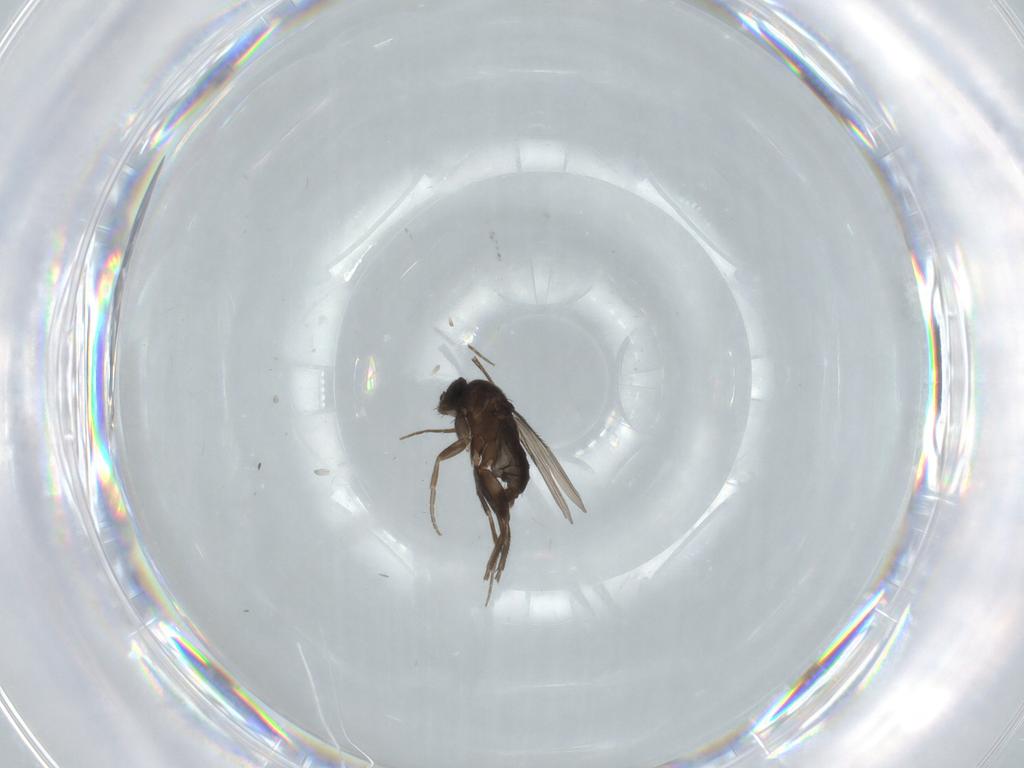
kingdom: Animalia
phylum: Arthropoda
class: Insecta
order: Diptera
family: Phoridae
